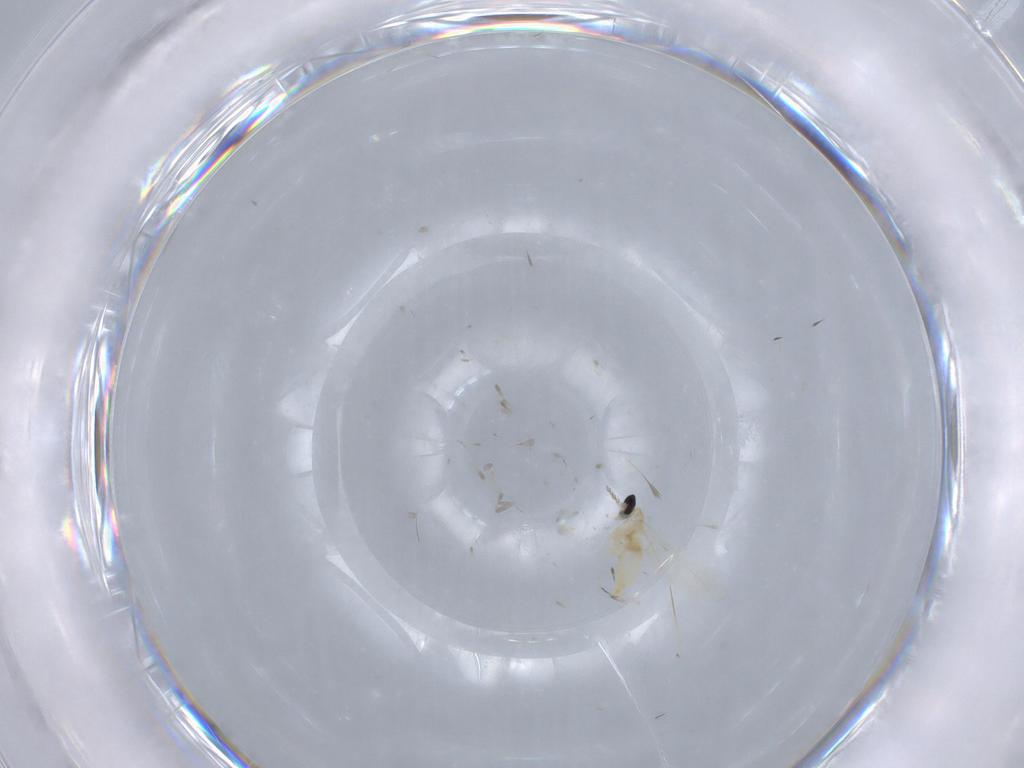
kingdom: Animalia
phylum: Arthropoda
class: Insecta
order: Diptera
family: Cecidomyiidae
